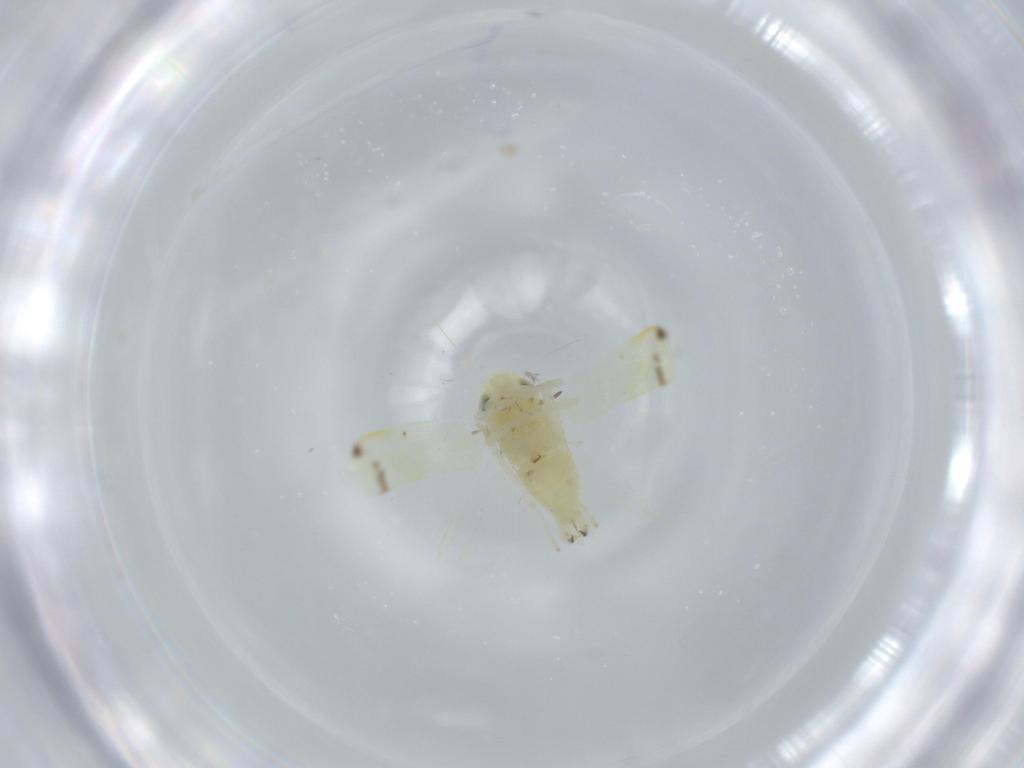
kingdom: Animalia
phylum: Arthropoda
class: Insecta
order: Hemiptera
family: Cicadellidae
